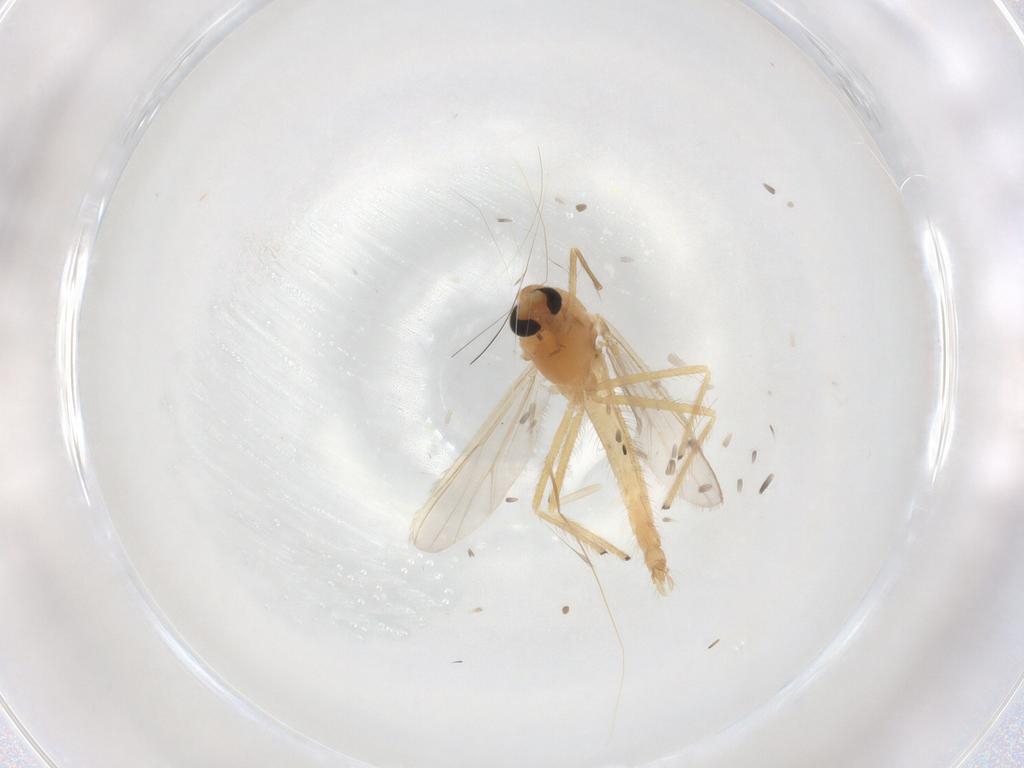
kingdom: Animalia
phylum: Arthropoda
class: Insecta
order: Diptera
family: Chironomidae
